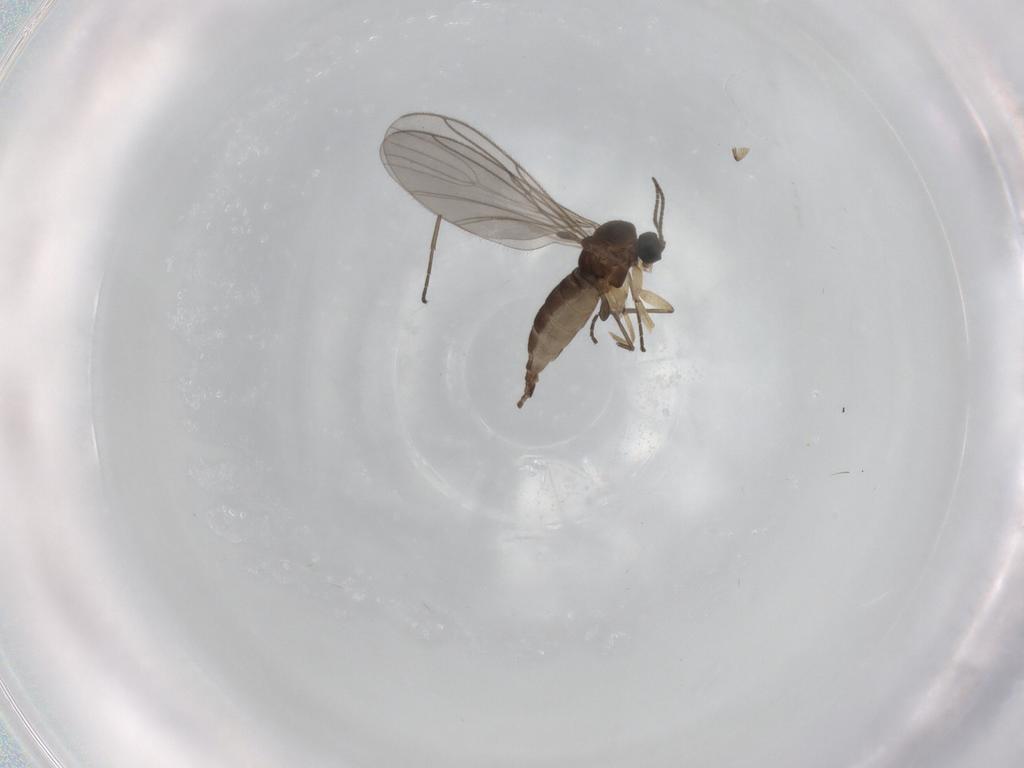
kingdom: Animalia
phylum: Arthropoda
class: Insecta
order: Diptera
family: Sciaridae
